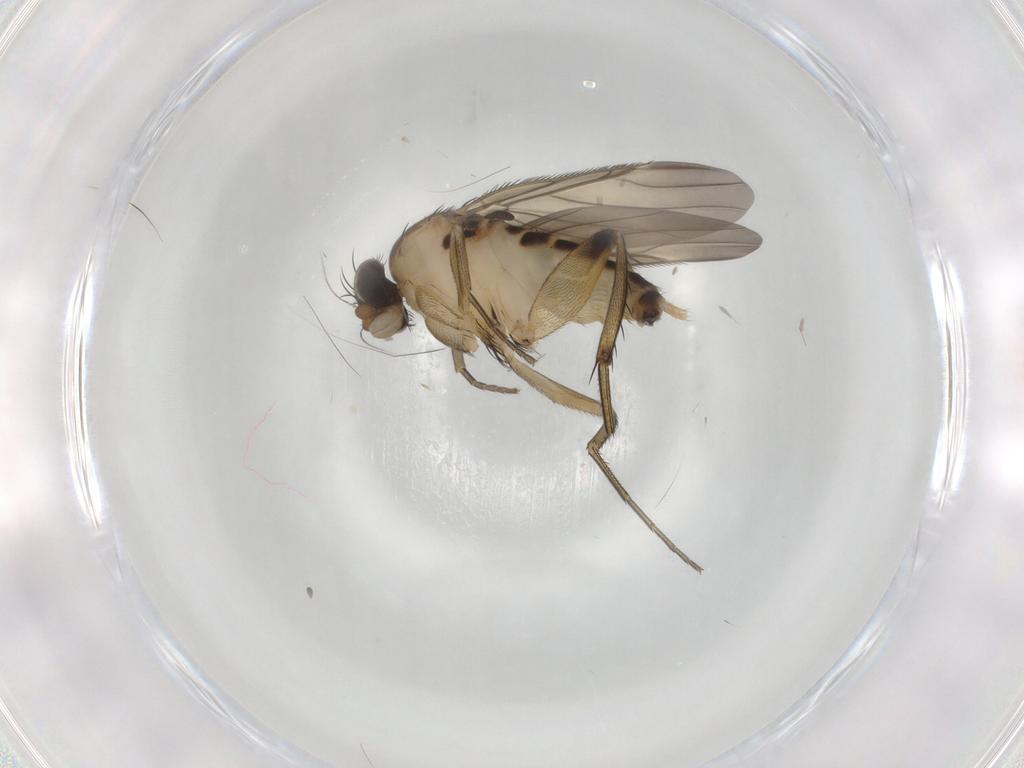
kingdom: Animalia
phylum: Arthropoda
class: Insecta
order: Diptera
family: Phoridae
